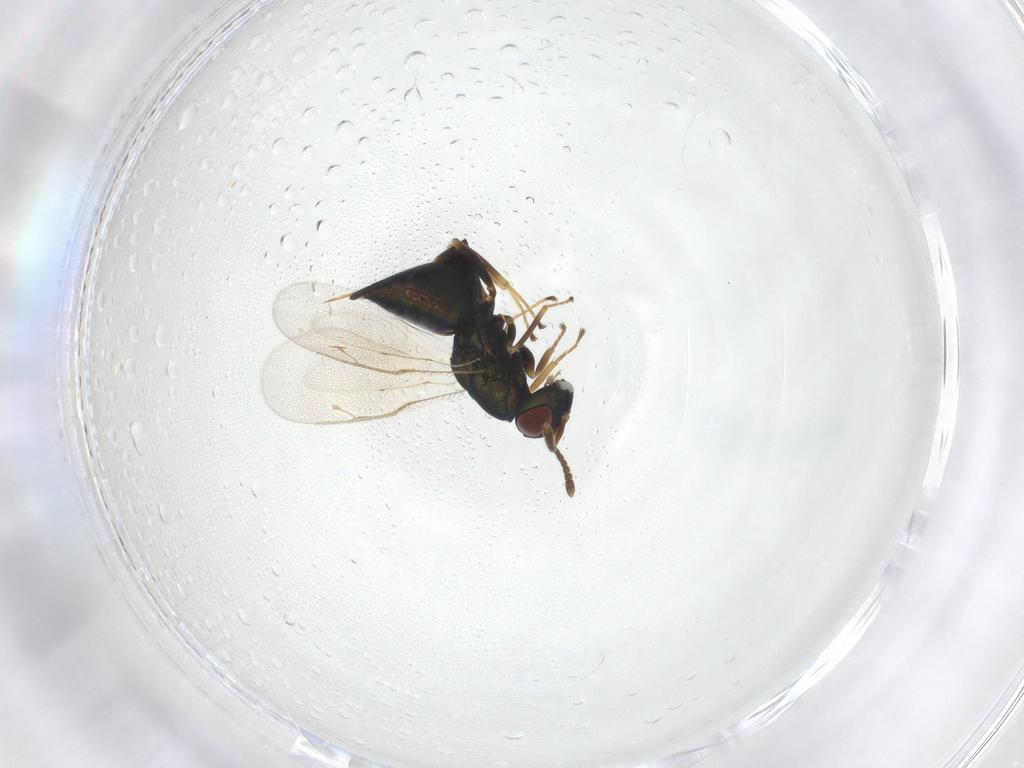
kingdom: Animalia
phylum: Arthropoda
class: Insecta
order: Hymenoptera
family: Pteromalidae
